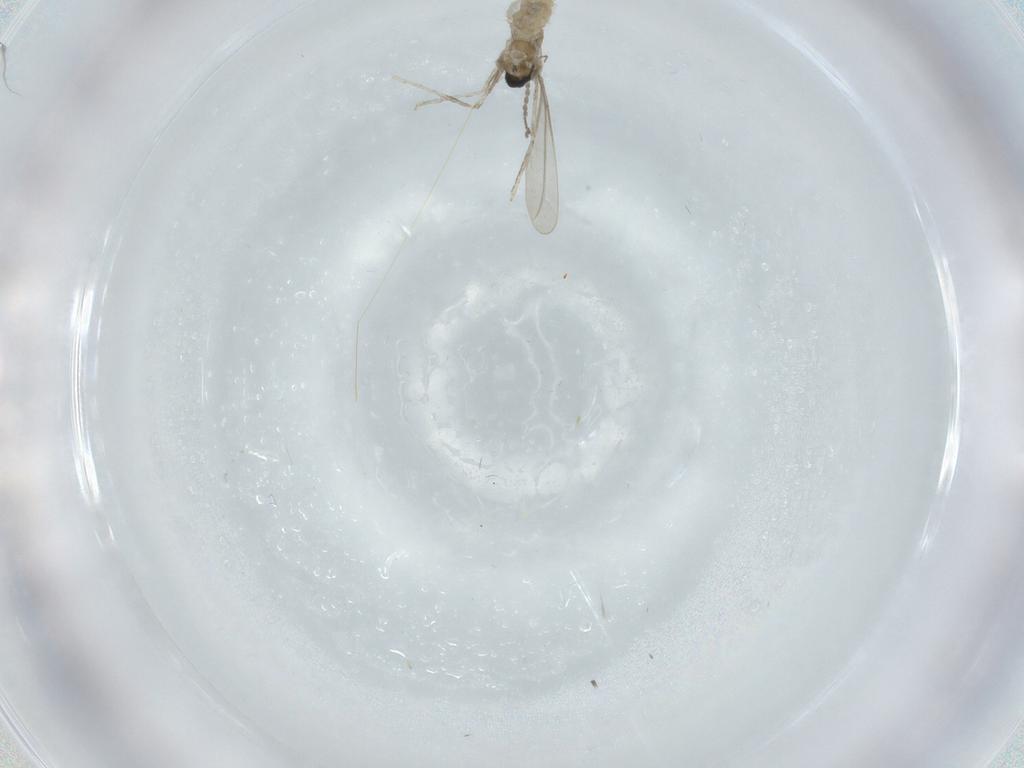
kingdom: Animalia
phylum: Arthropoda
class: Insecta
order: Diptera
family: Cecidomyiidae
